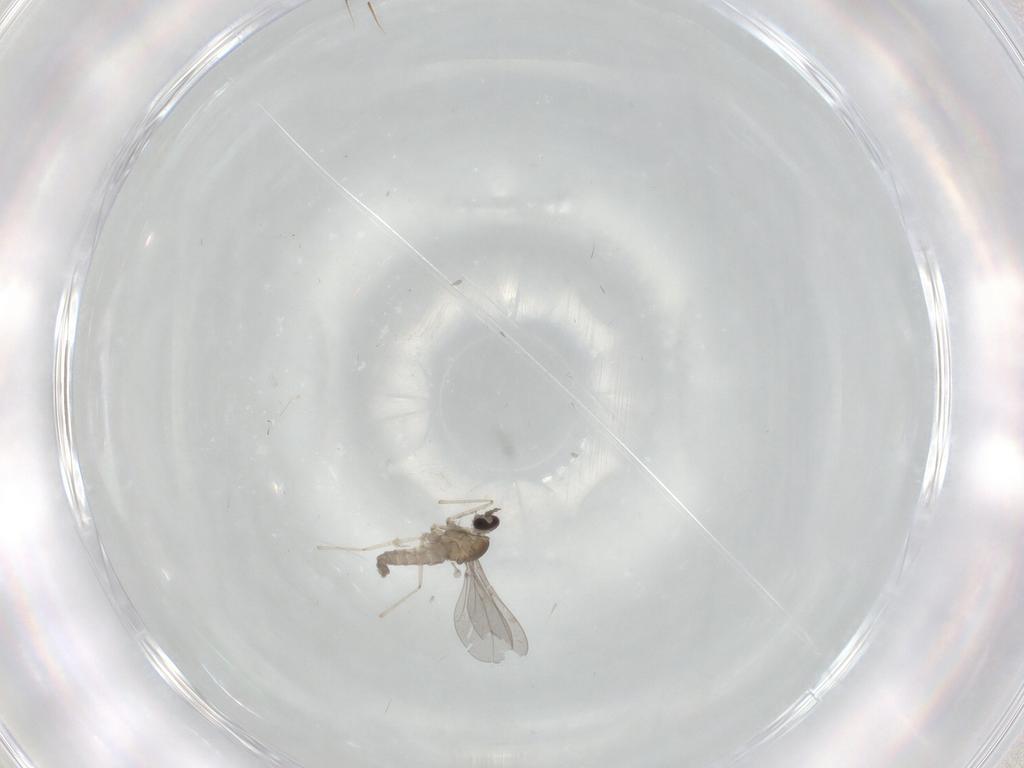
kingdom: Animalia
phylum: Arthropoda
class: Insecta
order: Diptera
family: Cecidomyiidae
